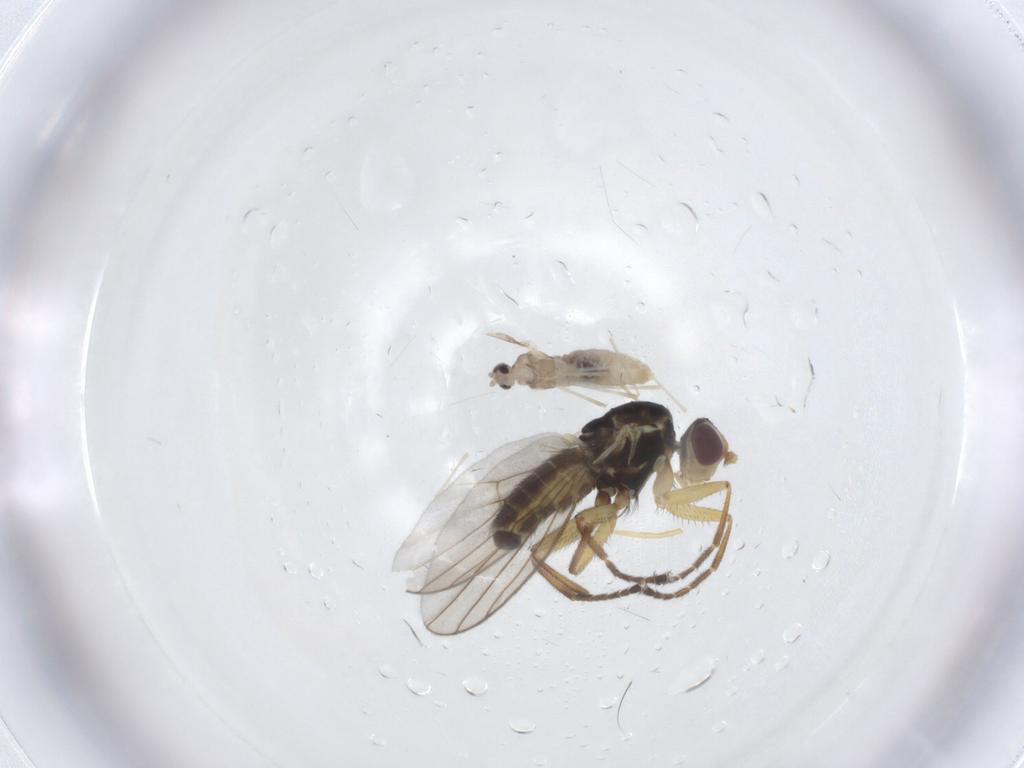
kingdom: Animalia
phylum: Arthropoda
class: Insecta
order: Diptera
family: Agromyzidae
